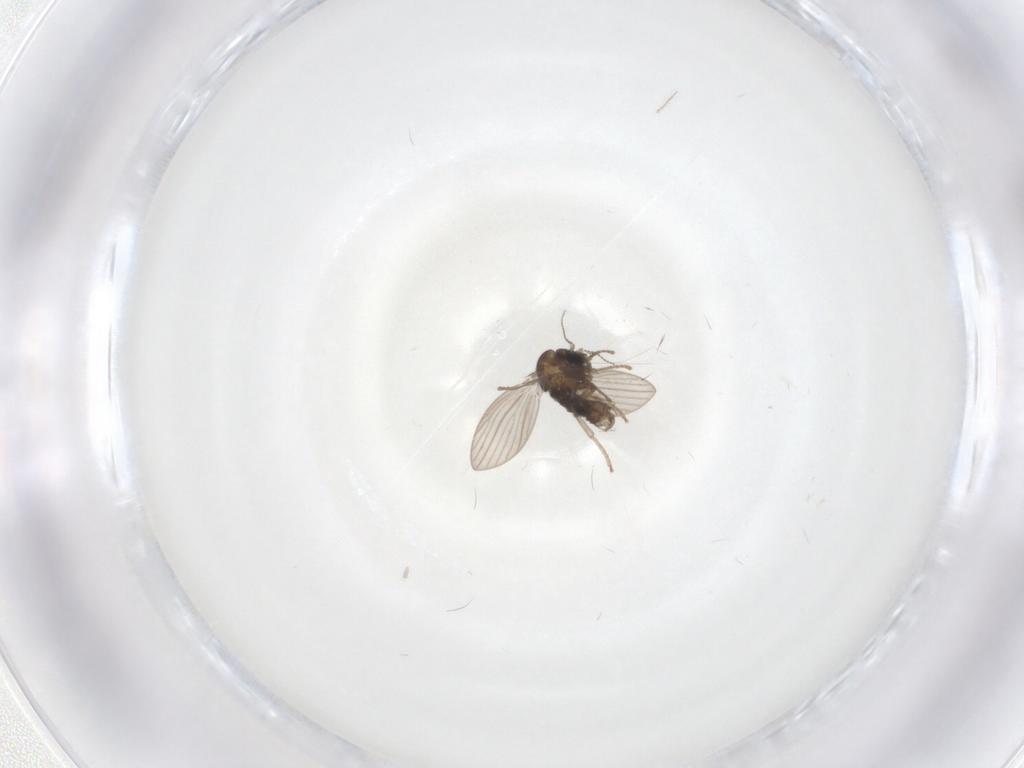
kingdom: Animalia
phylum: Arthropoda
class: Insecta
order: Diptera
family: Psychodidae
